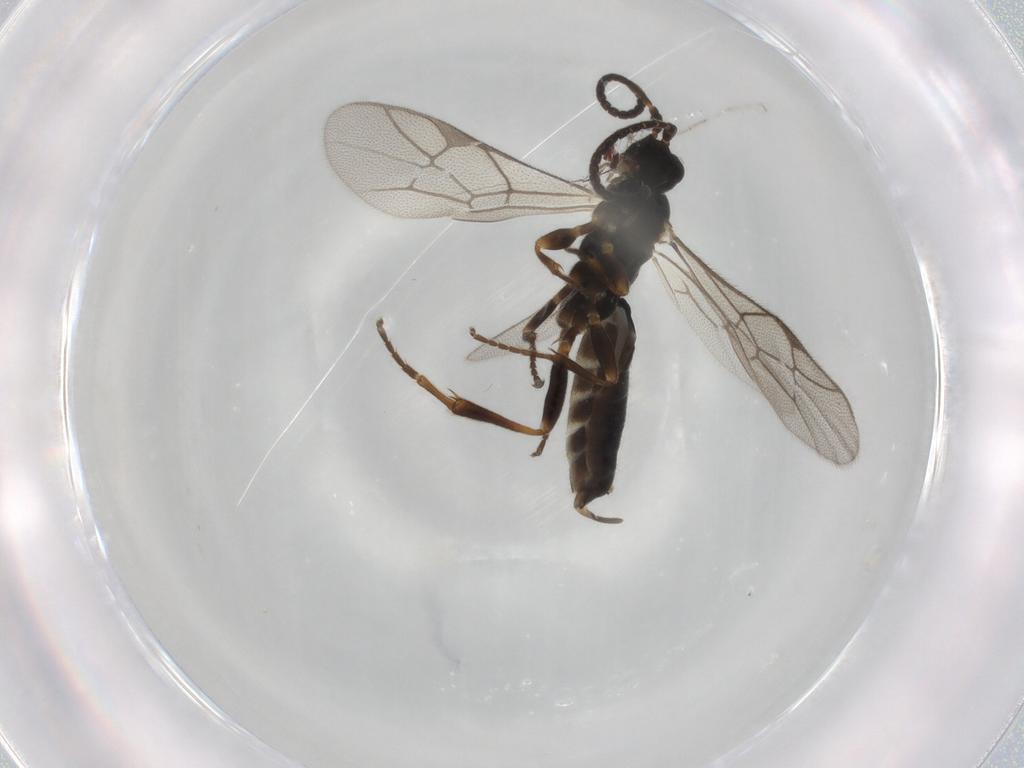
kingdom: Animalia
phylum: Arthropoda
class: Insecta
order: Hymenoptera
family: Ichneumonidae
